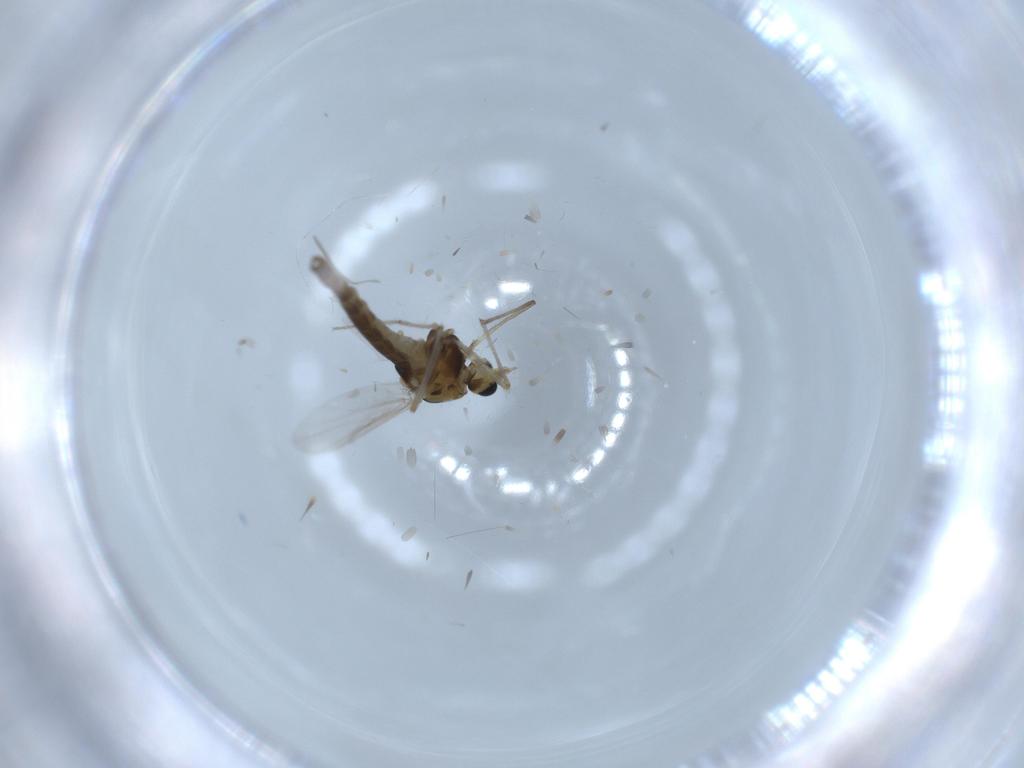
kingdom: Animalia
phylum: Arthropoda
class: Insecta
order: Diptera
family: Chironomidae
